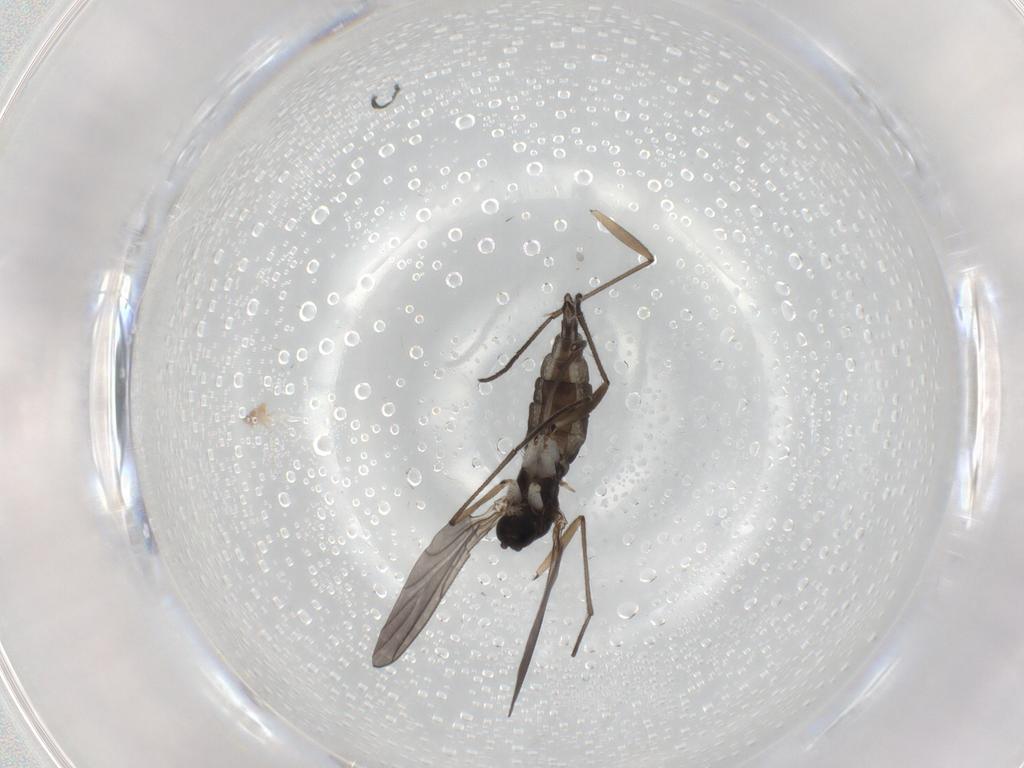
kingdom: Animalia
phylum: Arthropoda
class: Insecta
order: Diptera
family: Sciaridae
